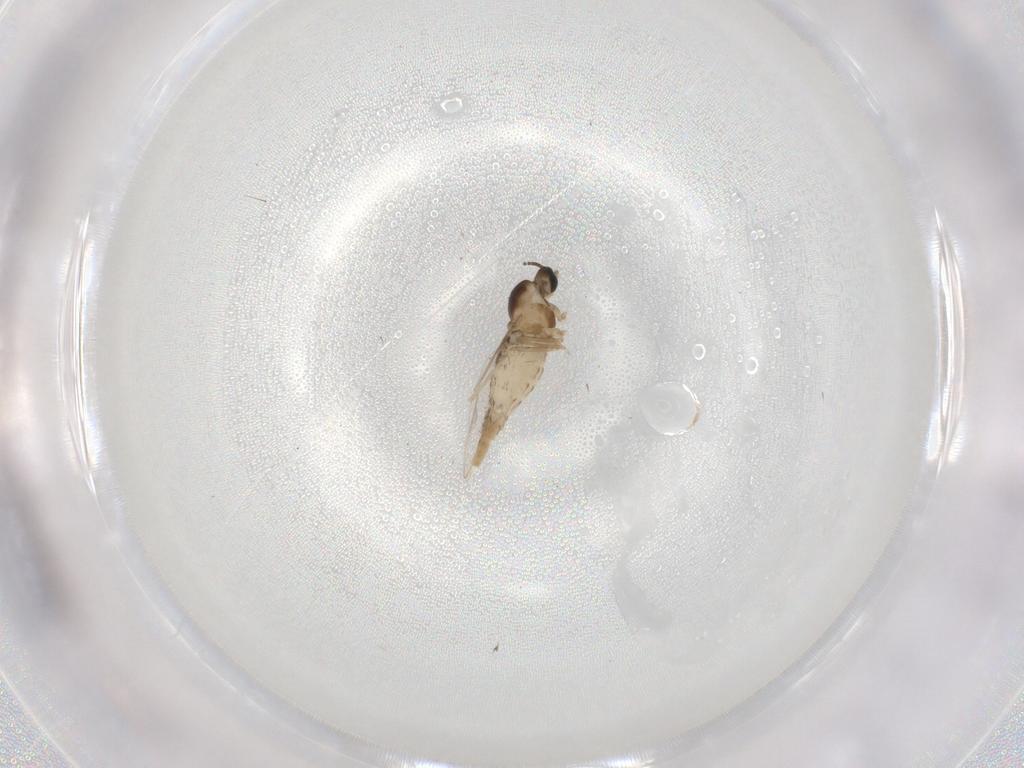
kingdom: Animalia
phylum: Arthropoda
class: Insecta
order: Diptera
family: Cecidomyiidae
